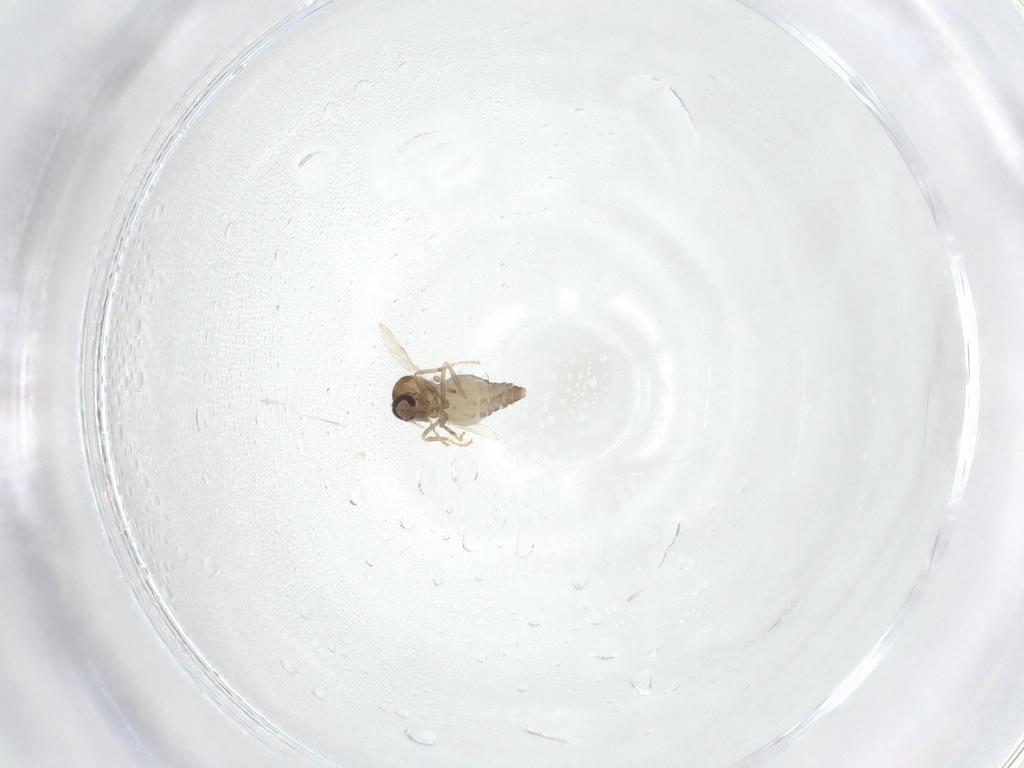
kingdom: Animalia
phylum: Arthropoda
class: Insecta
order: Diptera
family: Ceratopogonidae
